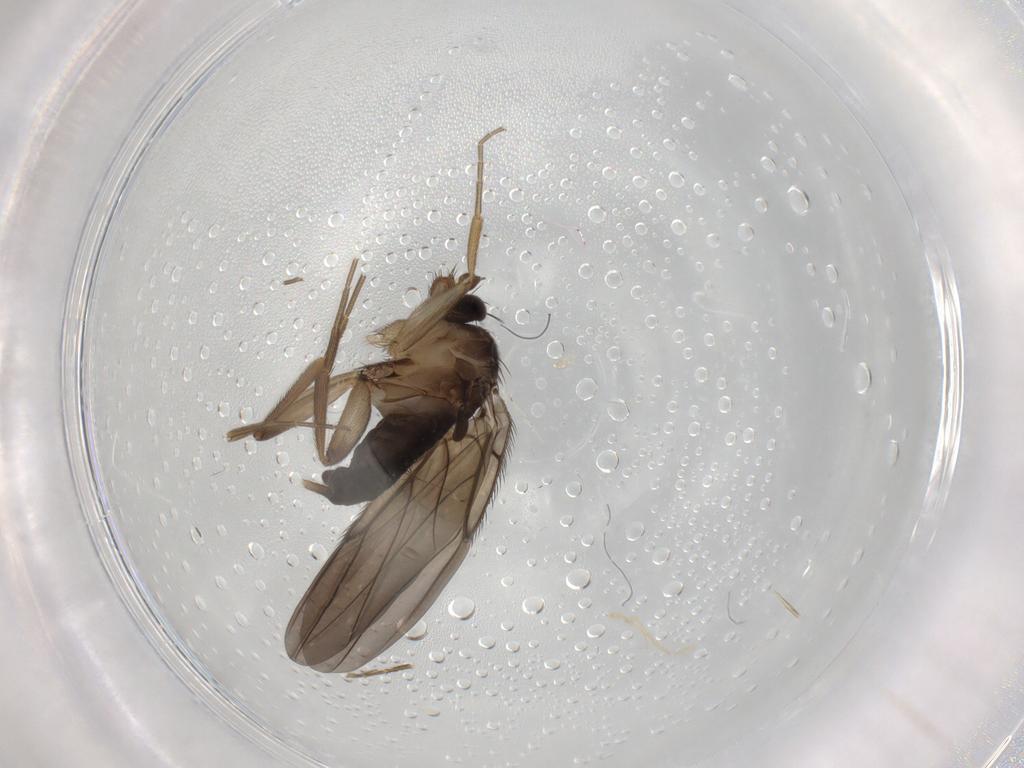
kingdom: Animalia
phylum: Arthropoda
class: Insecta
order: Diptera
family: Phoridae
